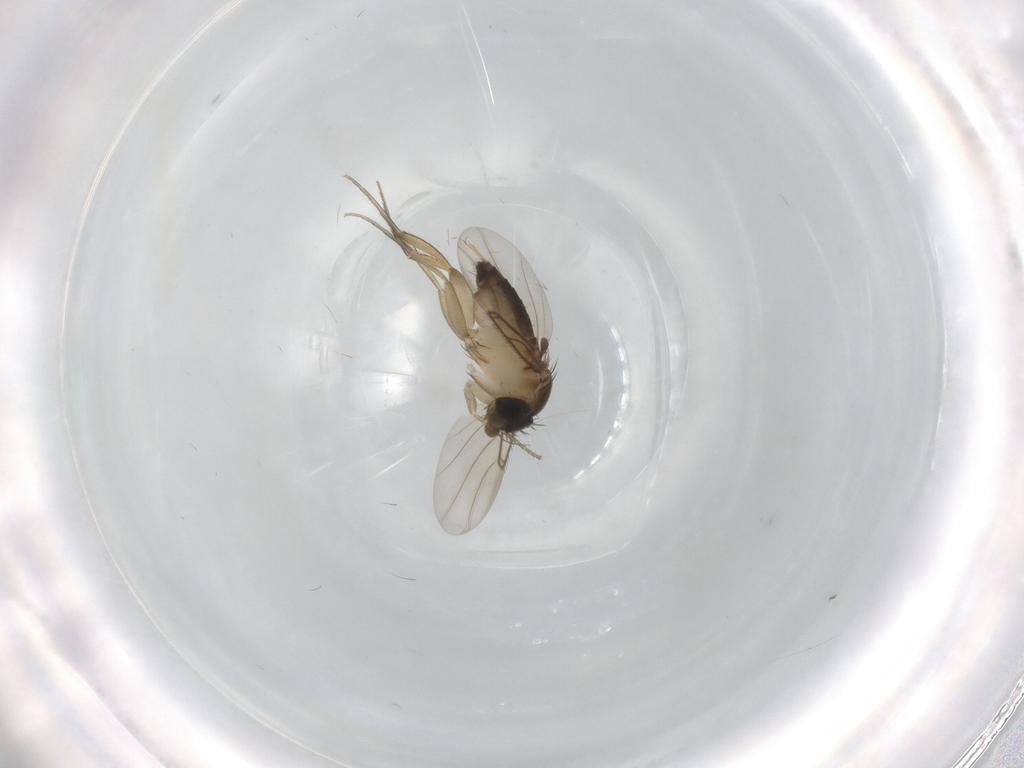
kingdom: Animalia
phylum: Arthropoda
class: Insecta
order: Diptera
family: Phoridae
